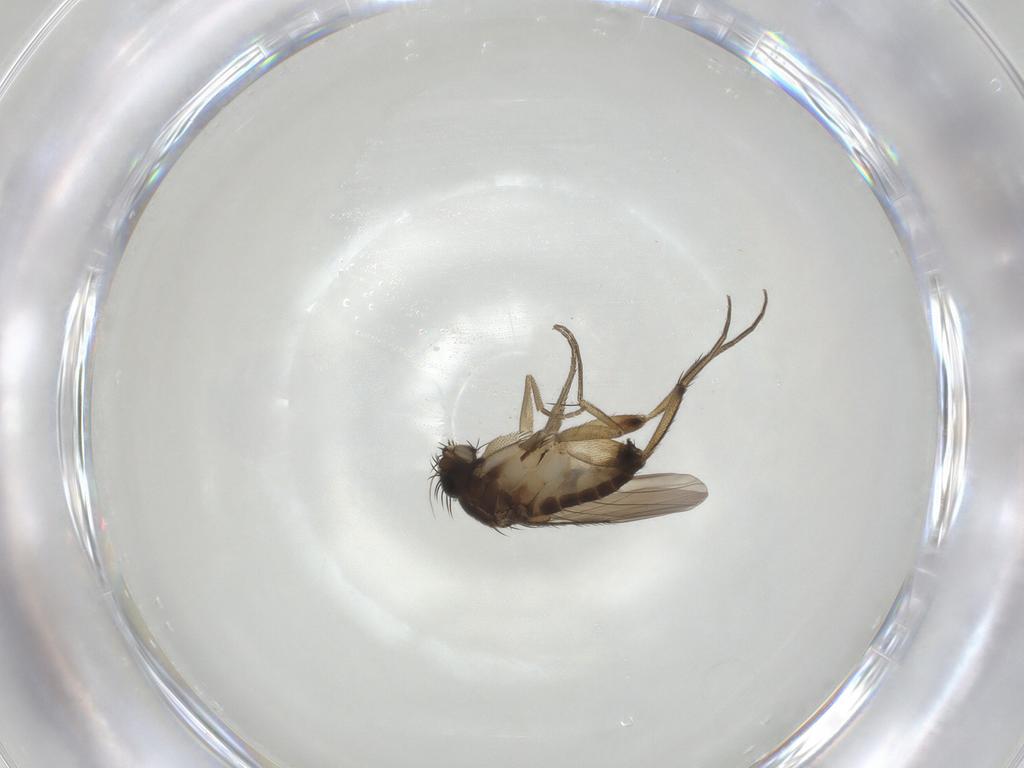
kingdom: Animalia
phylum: Arthropoda
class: Insecta
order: Diptera
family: Phoridae
